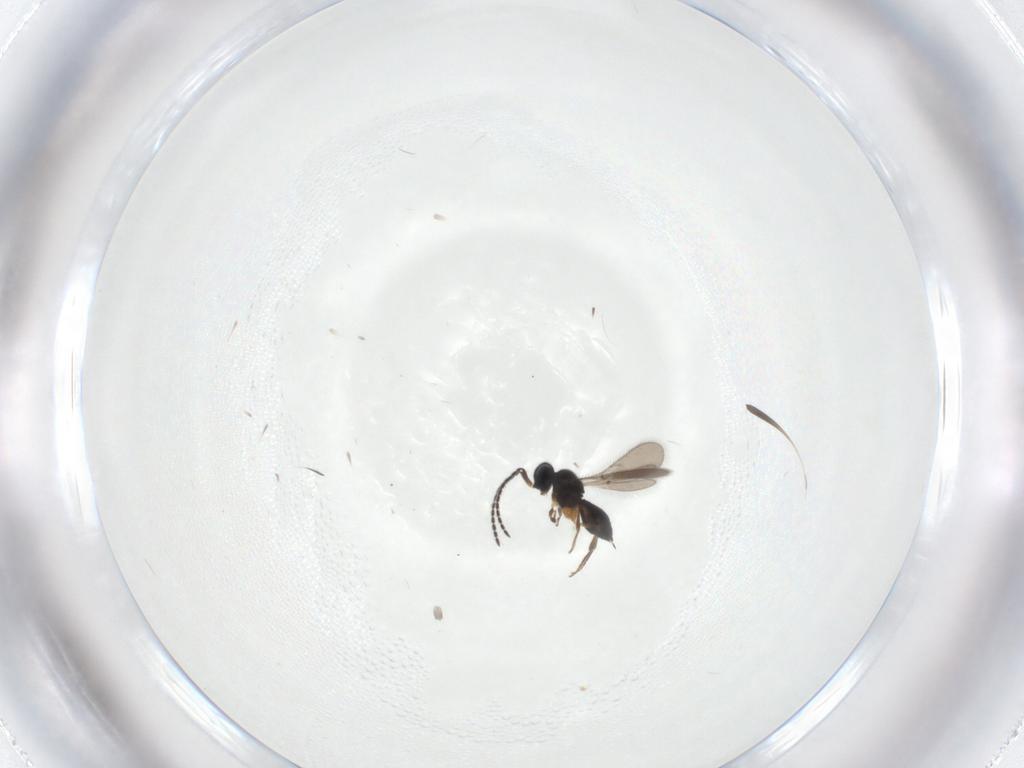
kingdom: Animalia
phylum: Arthropoda
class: Insecta
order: Hymenoptera
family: Scelionidae
